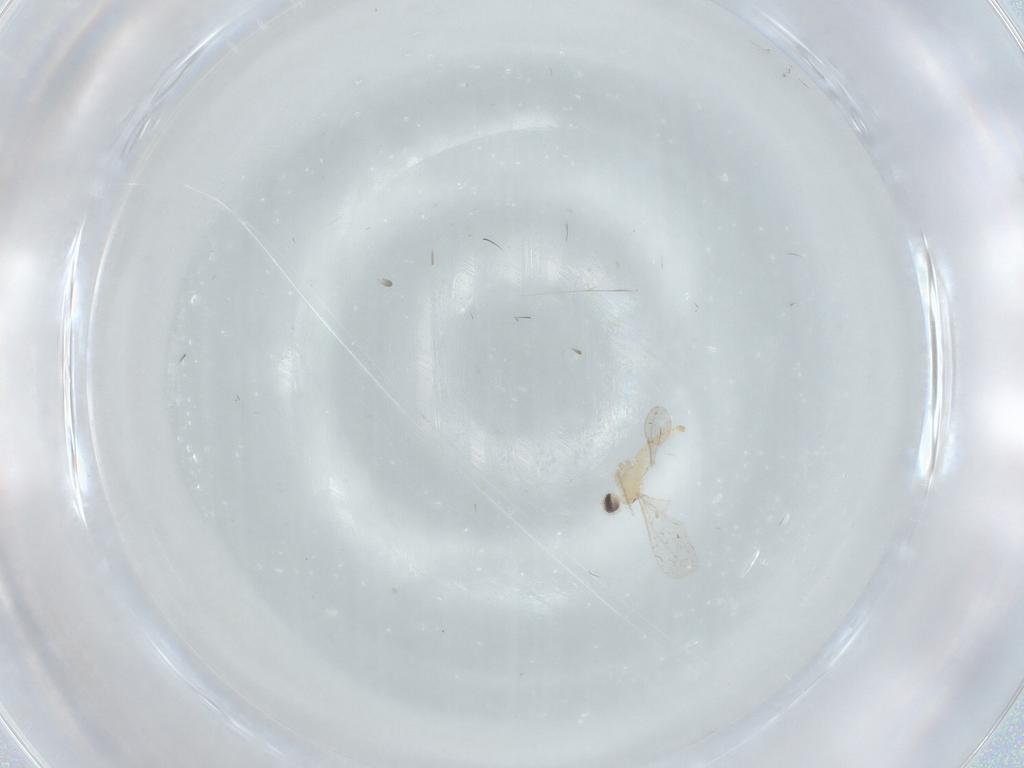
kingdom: Animalia
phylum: Arthropoda
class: Insecta
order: Diptera
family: Cecidomyiidae
